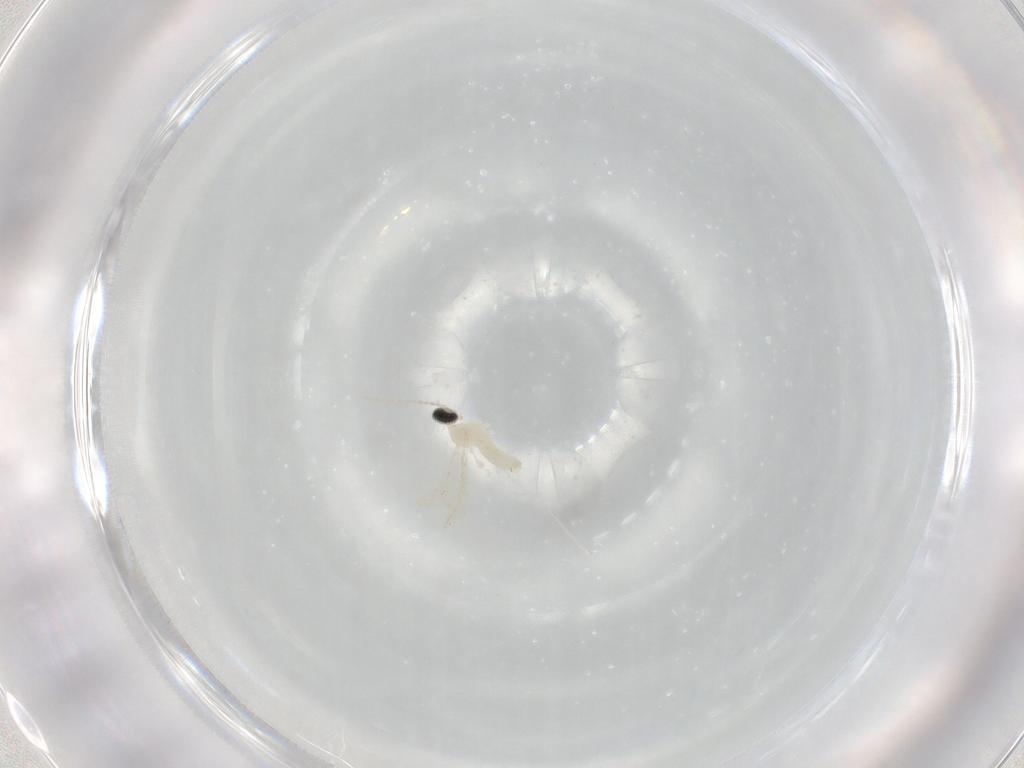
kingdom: Animalia
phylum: Arthropoda
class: Insecta
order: Diptera
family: Cecidomyiidae
